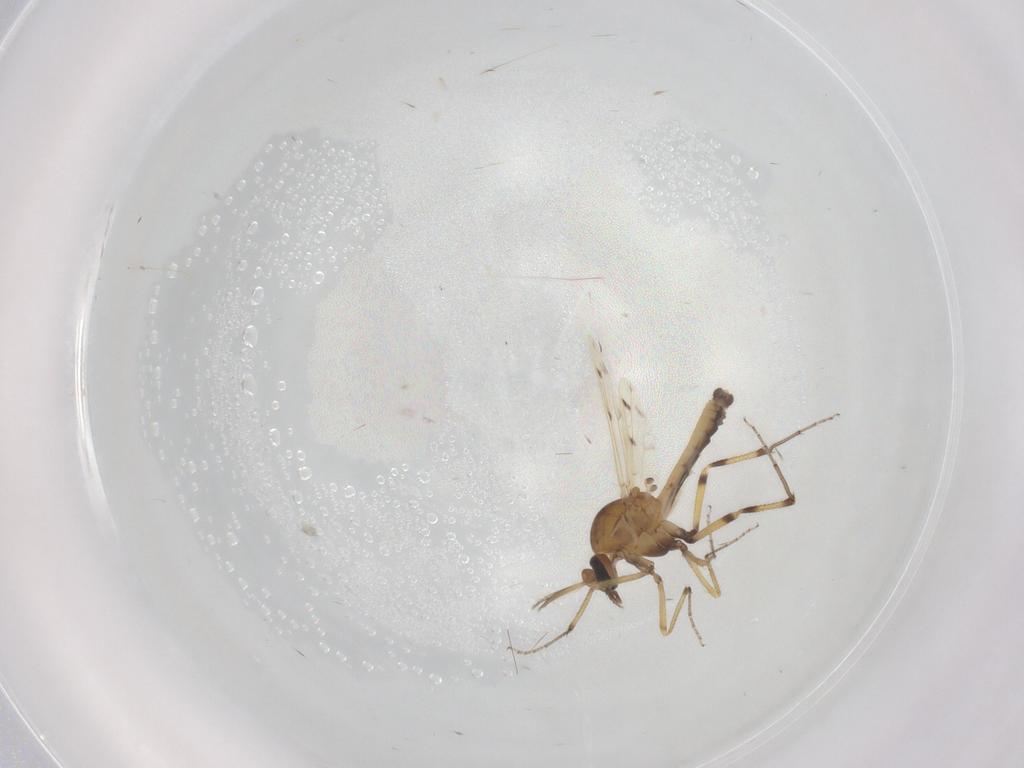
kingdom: Animalia
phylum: Arthropoda
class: Insecta
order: Diptera
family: Ceratopogonidae
